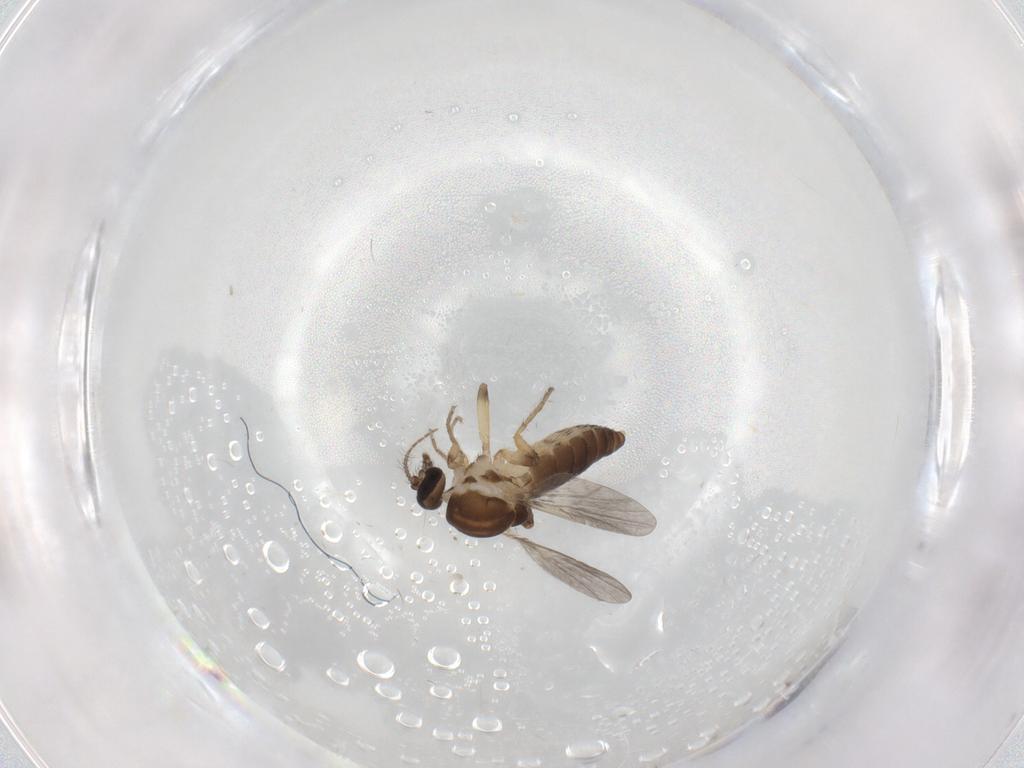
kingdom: Animalia
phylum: Arthropoda
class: Insecta
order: Diptera
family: Ceratopogonidae
